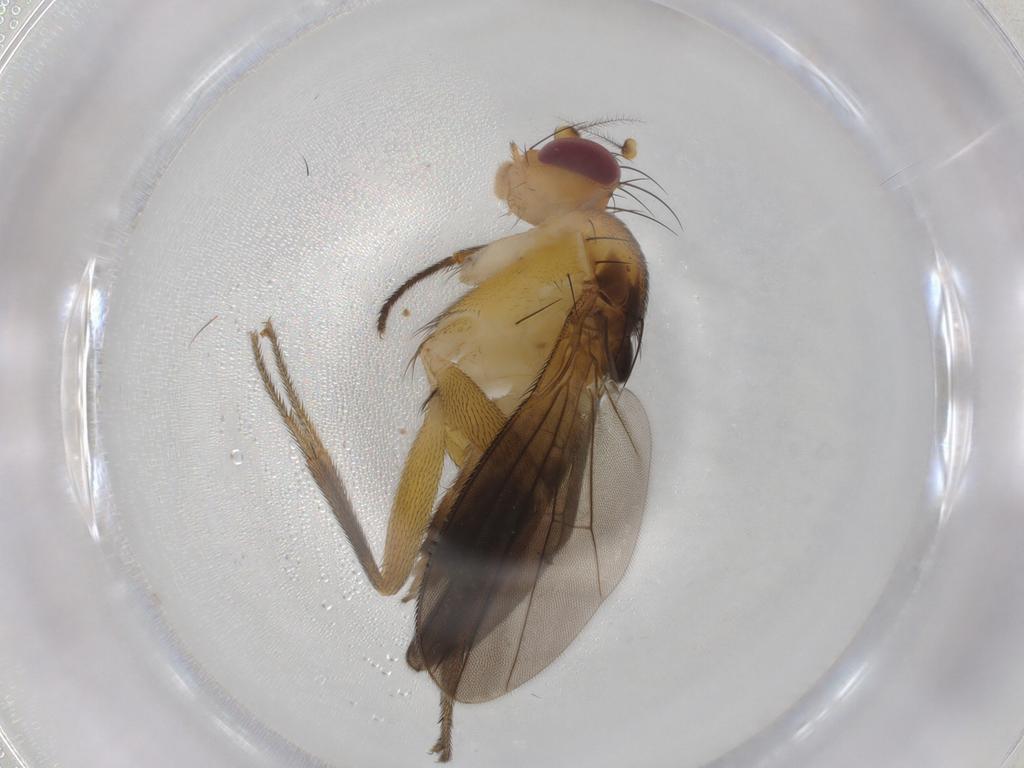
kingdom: Animalia
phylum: Arthropoda
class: Insecta
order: Diptera
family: Clusiidae
